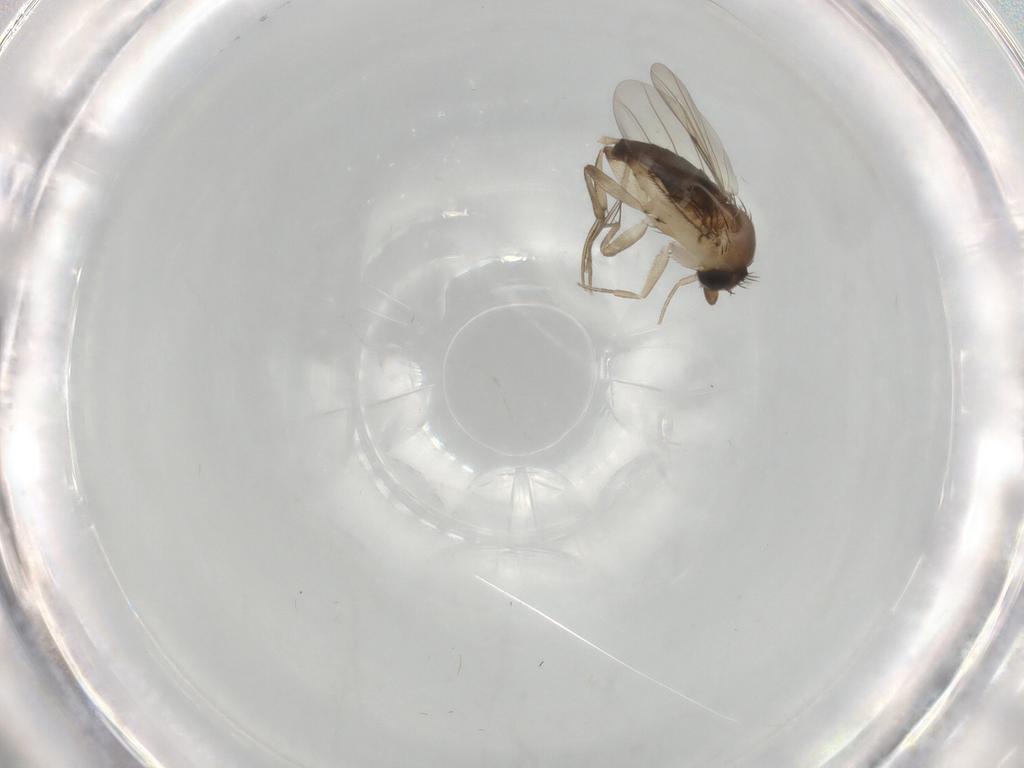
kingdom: Animalia
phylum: Arthropoda
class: Insecta
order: Diptera
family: Phoridae
